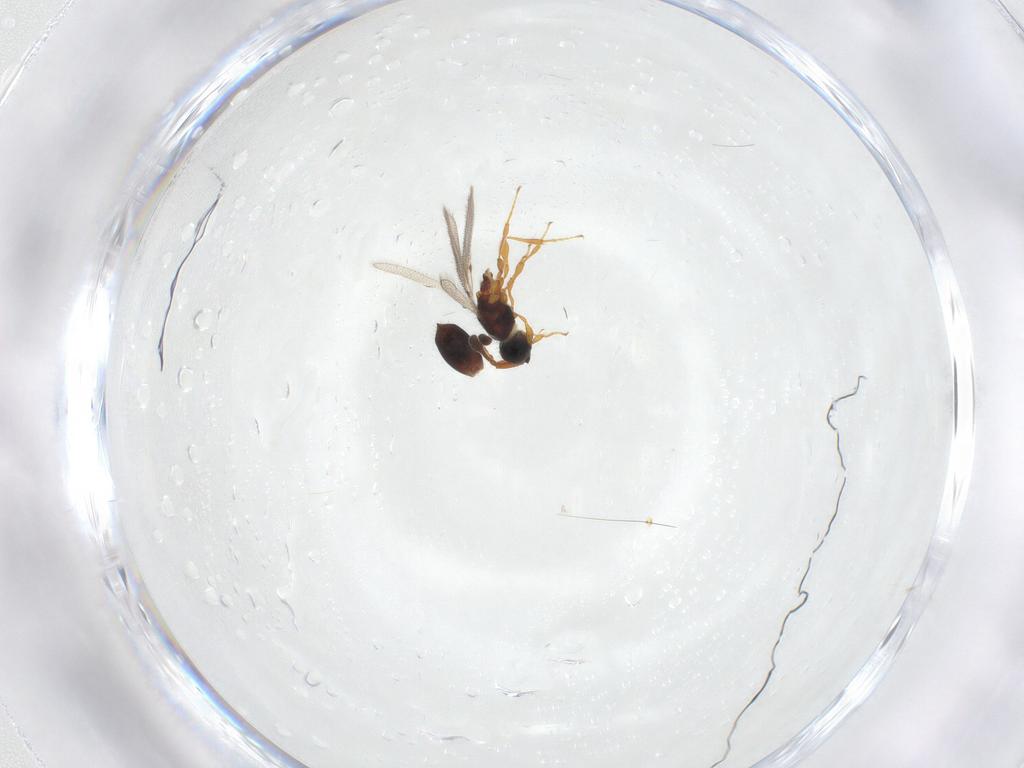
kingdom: Animalia
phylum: Arthropoda
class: Insecta
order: Hymenoptera
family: Diapriidae
